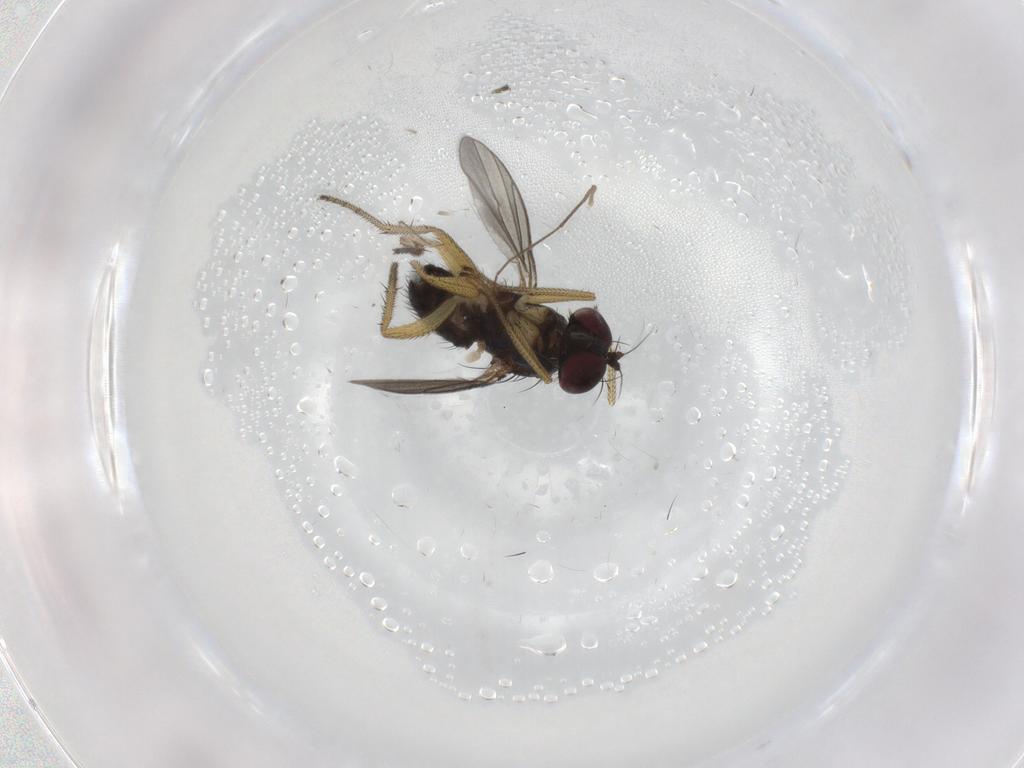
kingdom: Animalia
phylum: Arthropoda
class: Insecta
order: Diptera
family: Chironomidae
